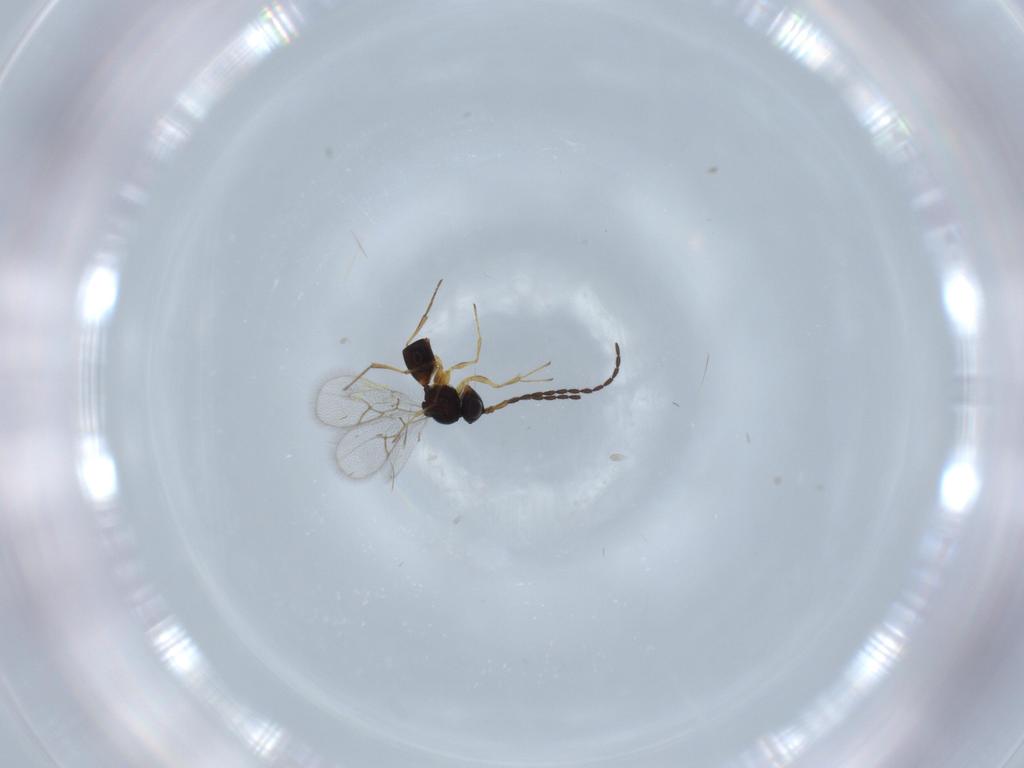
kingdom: Animalia
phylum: Arthropoda
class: Insecta
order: Hymenoptera
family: Figitidae
